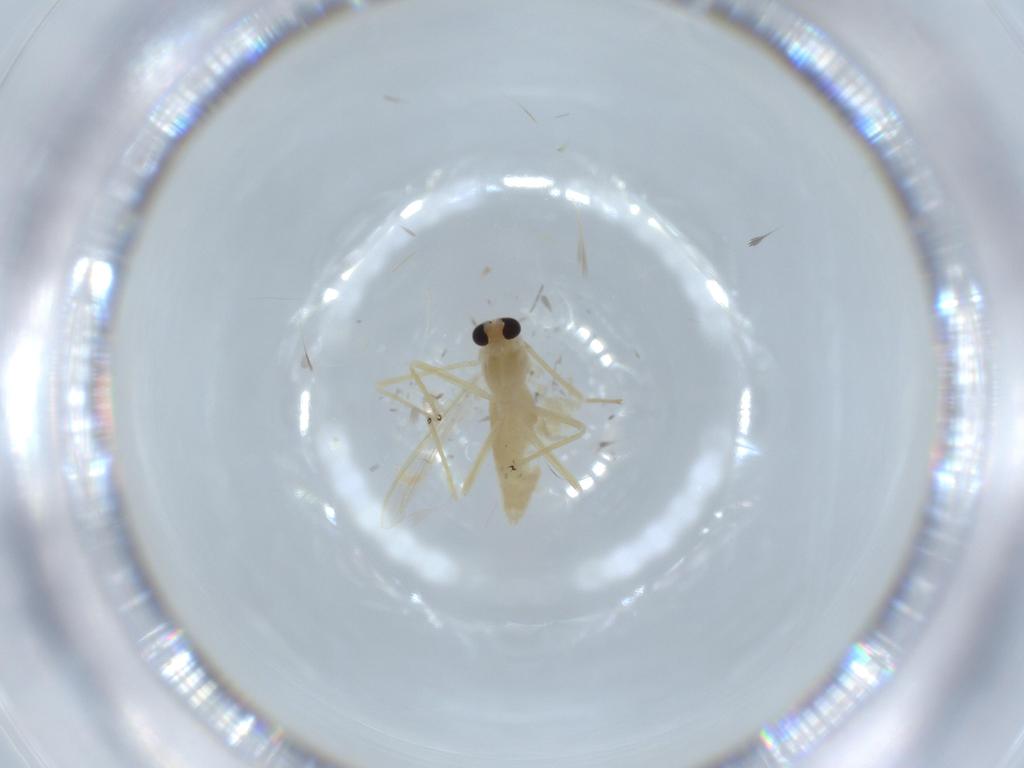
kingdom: Animalia
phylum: Arthropoda
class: Insecta
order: Diptera
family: Chironomidae
